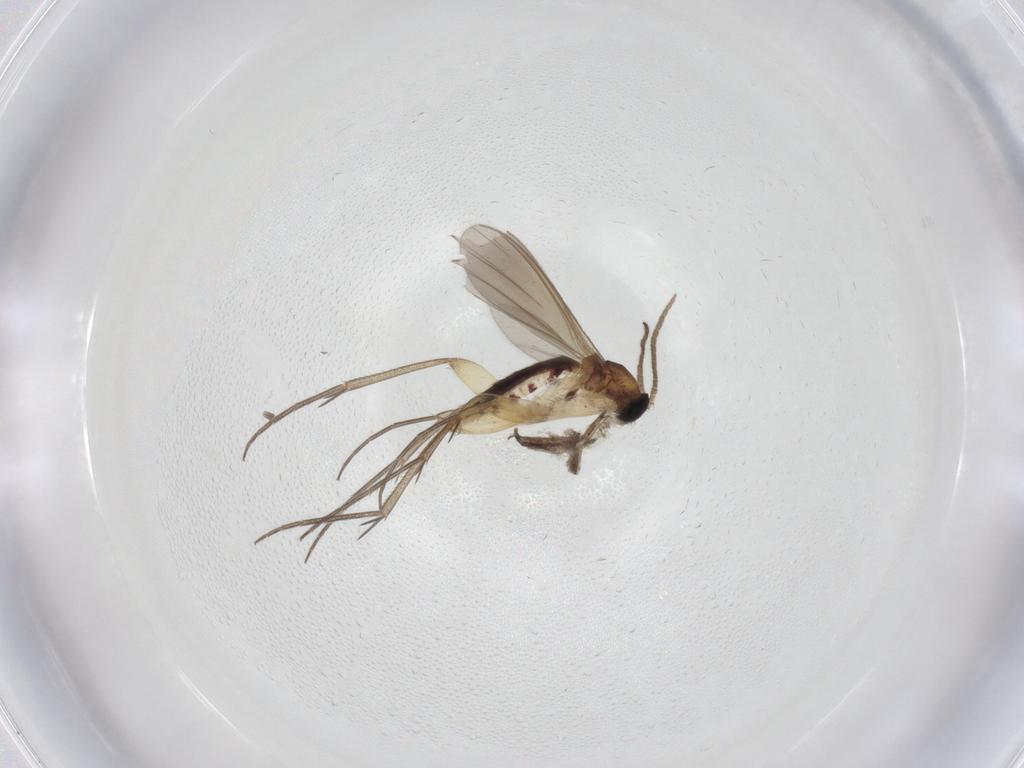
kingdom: Animalia
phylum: Arthropoda
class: Insecta
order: Diptera
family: Mycetophilidae
